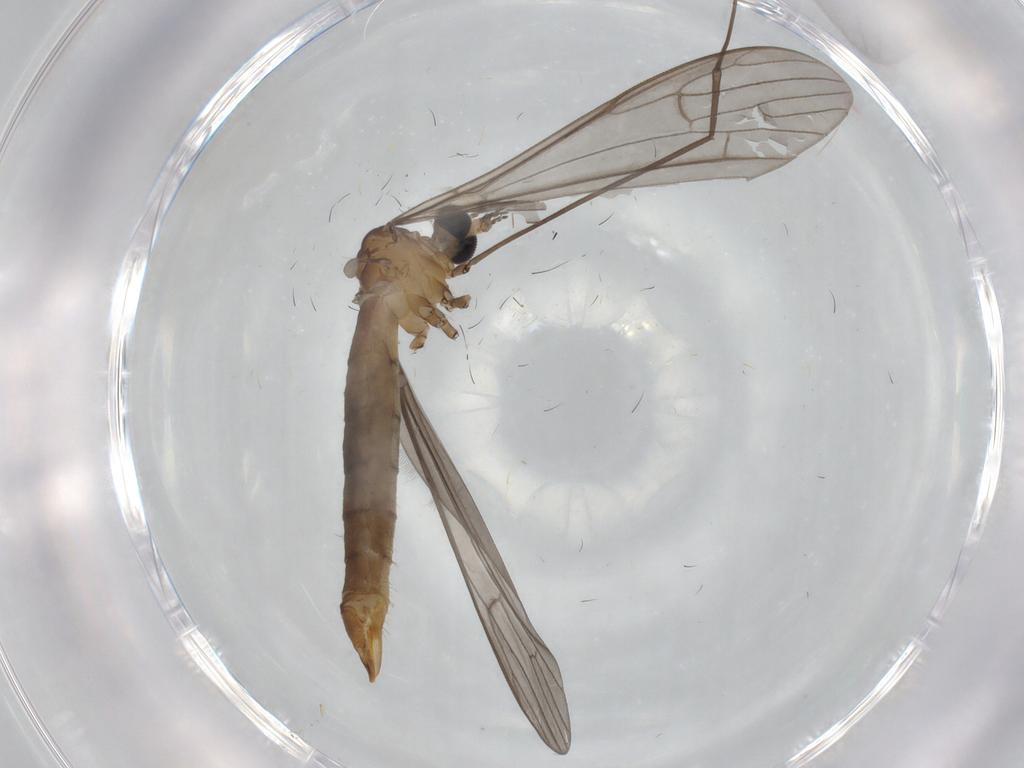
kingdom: Animalia
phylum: Arthropoda
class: Insecta
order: Diptera
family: Limoniidae
